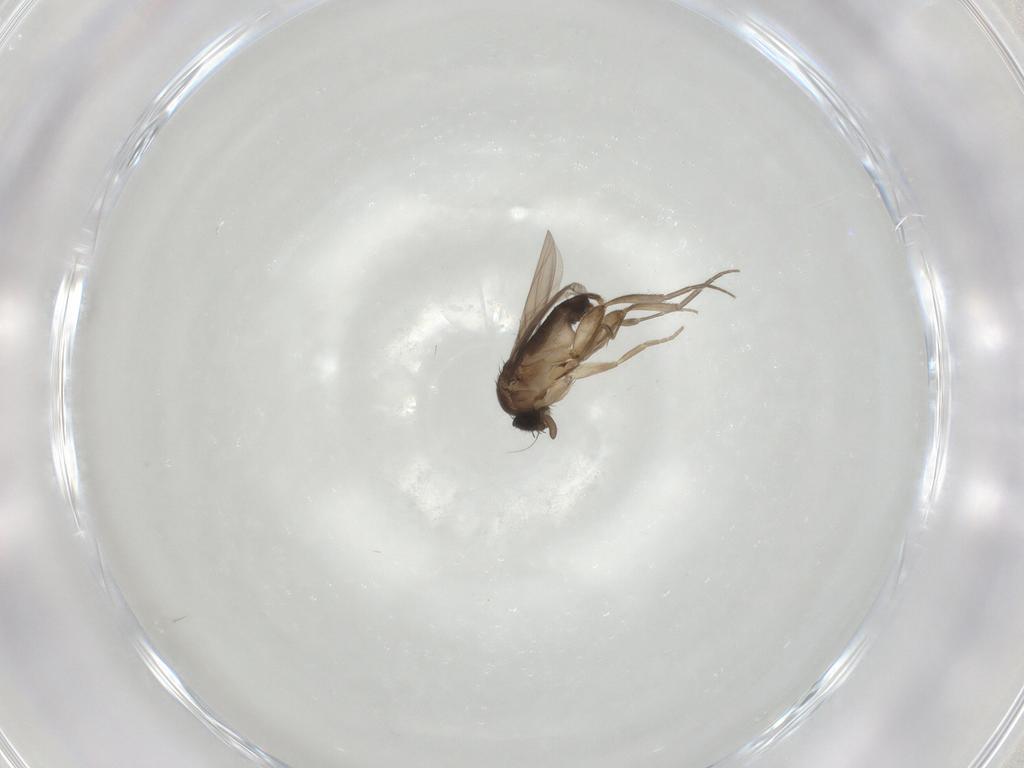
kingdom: Animalia
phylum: Arthropoda
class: Insecta
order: Diptera
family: Phoridae
